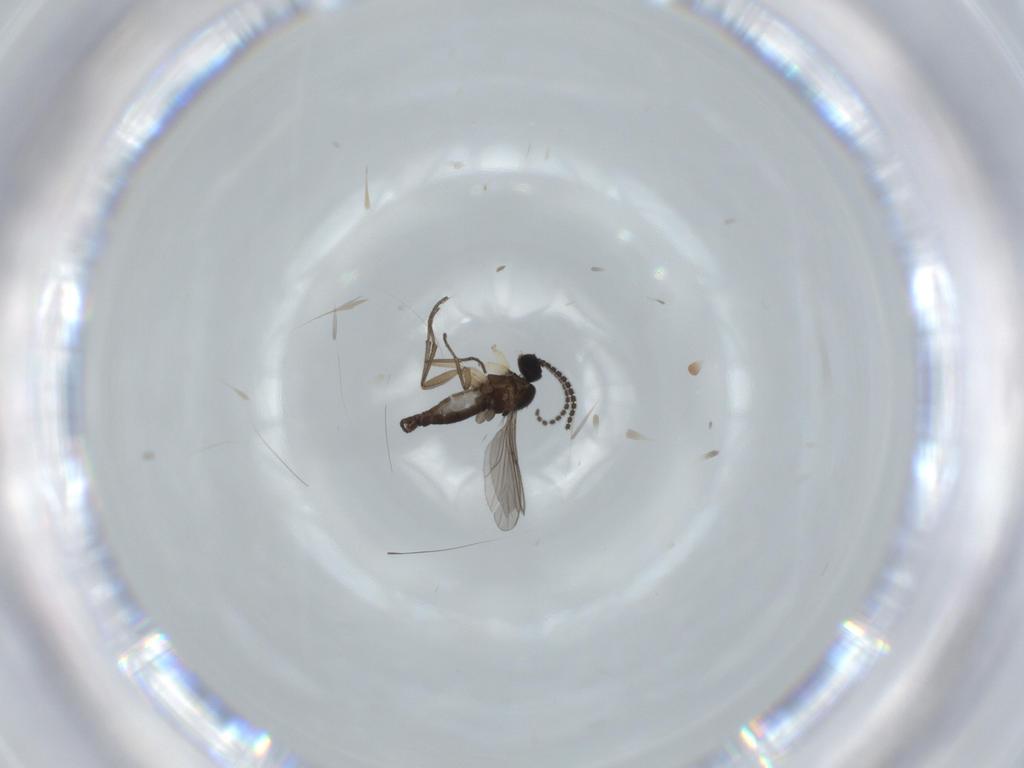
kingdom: Animalia
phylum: Arthropoda
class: Insecta
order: Diptera
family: Sciaridae
